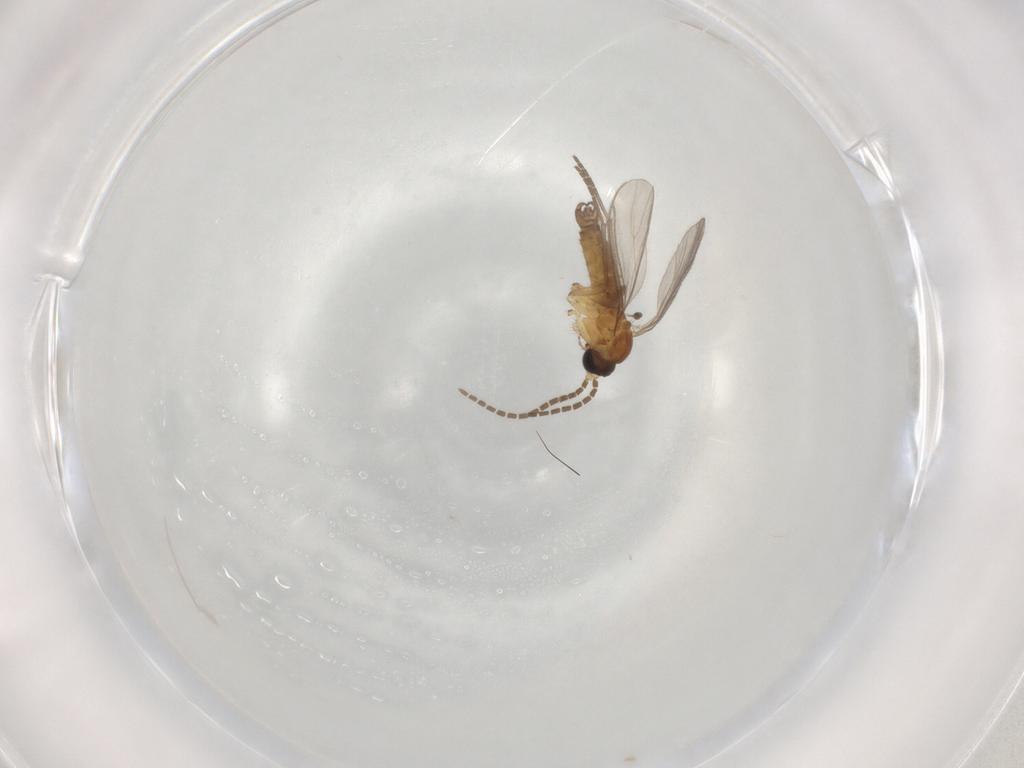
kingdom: Animalia
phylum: Arthropoda
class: Insecta
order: Diptera
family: Sciaridae
